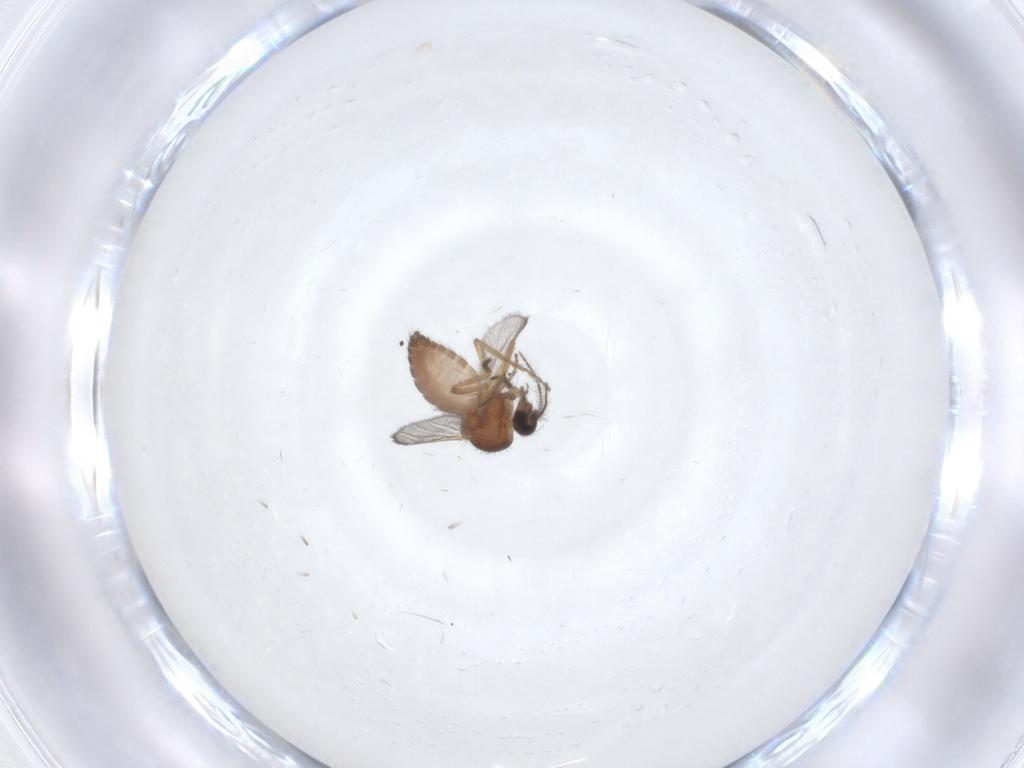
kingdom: Animalia
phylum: Arthropoda
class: Insecta
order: Diptera
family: Ceratopogonidae
